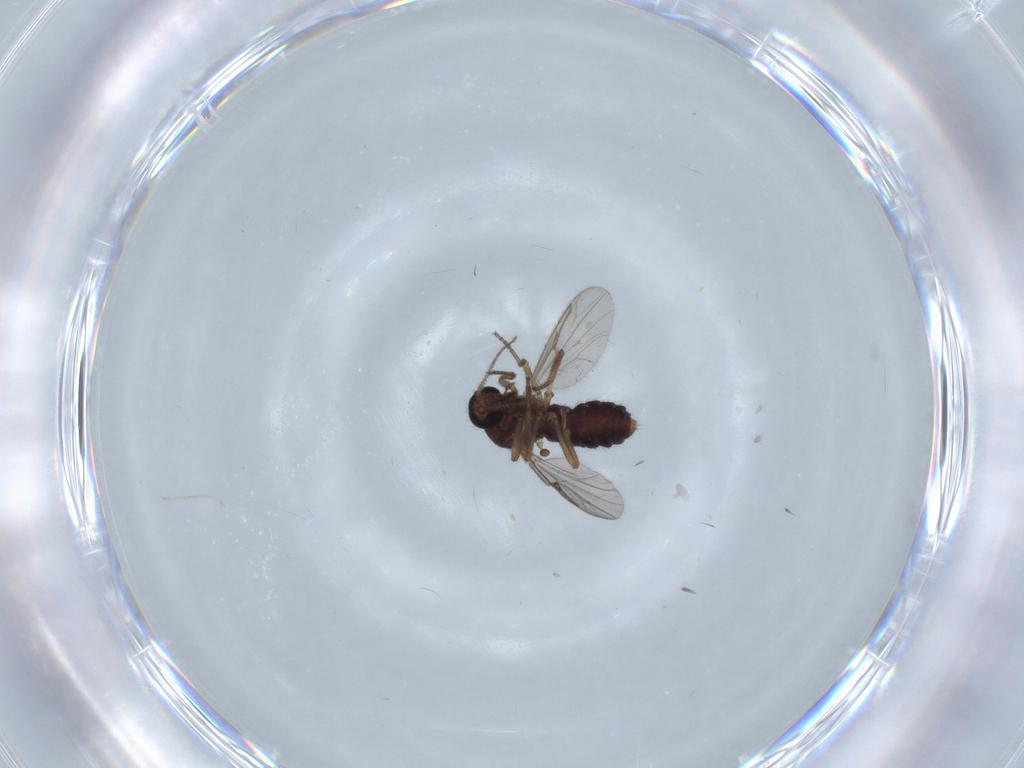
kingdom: Animalia
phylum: Arthropoda
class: Insecta
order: Diptera
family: Ceratopogonidae
